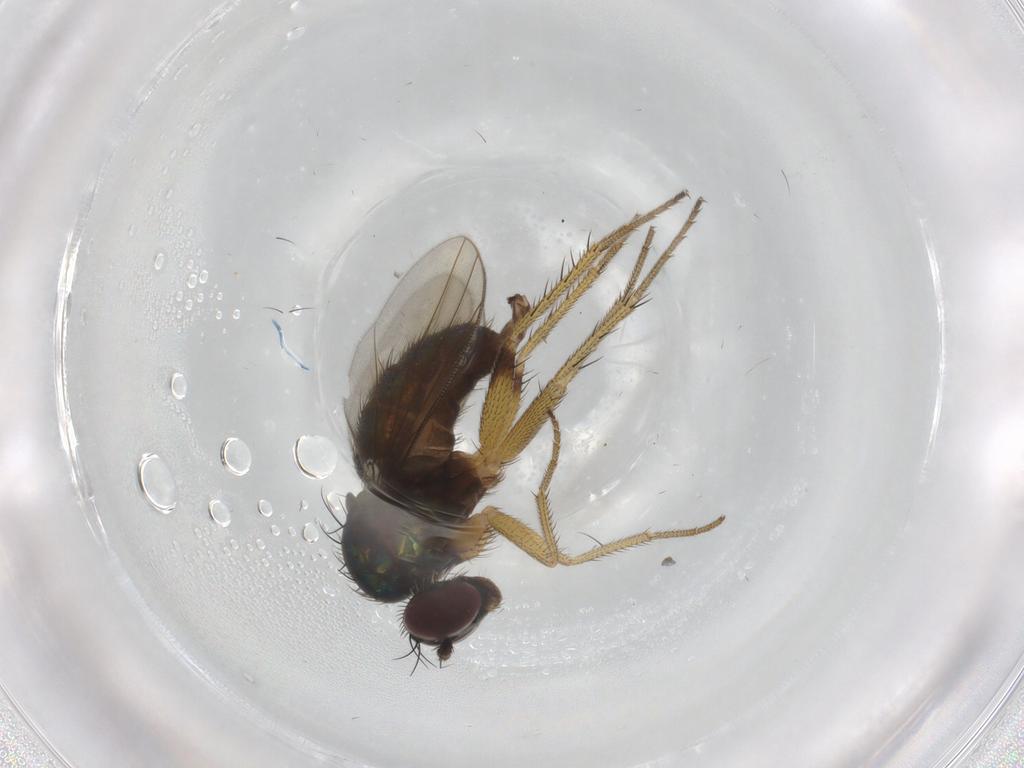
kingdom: Animalia
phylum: Arthropoda
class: Insecta
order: Diptera
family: Dolichopodidae
